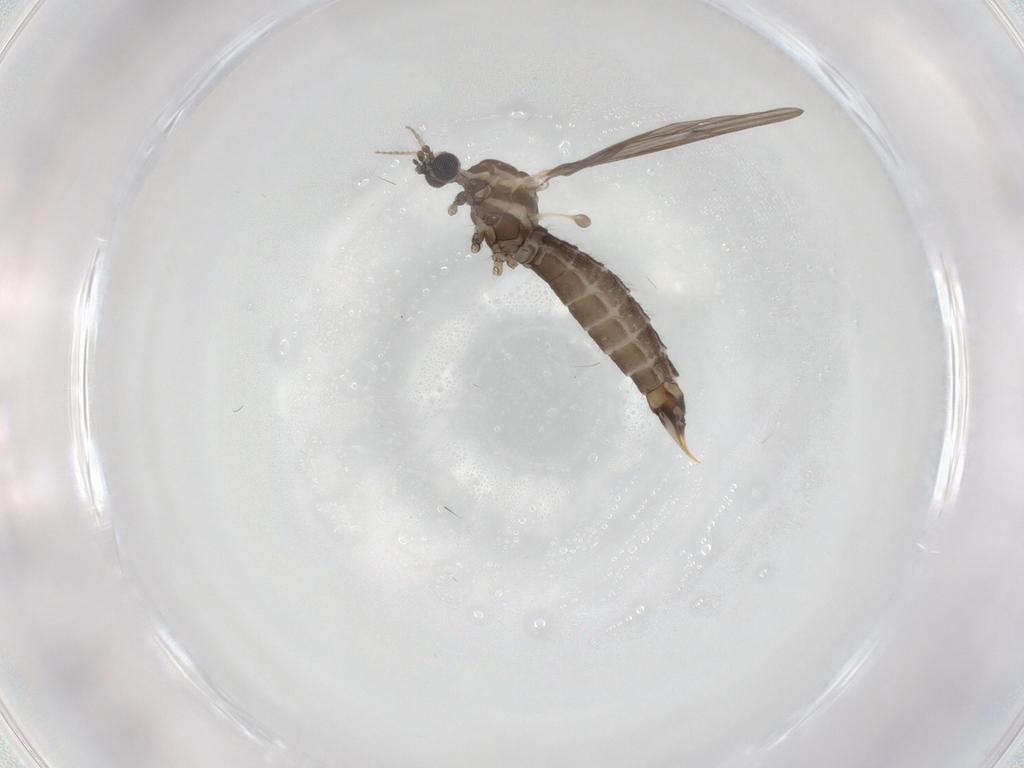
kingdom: Animalia
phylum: Arthropoda
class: Insecta
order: Diptera
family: Limoniidae
